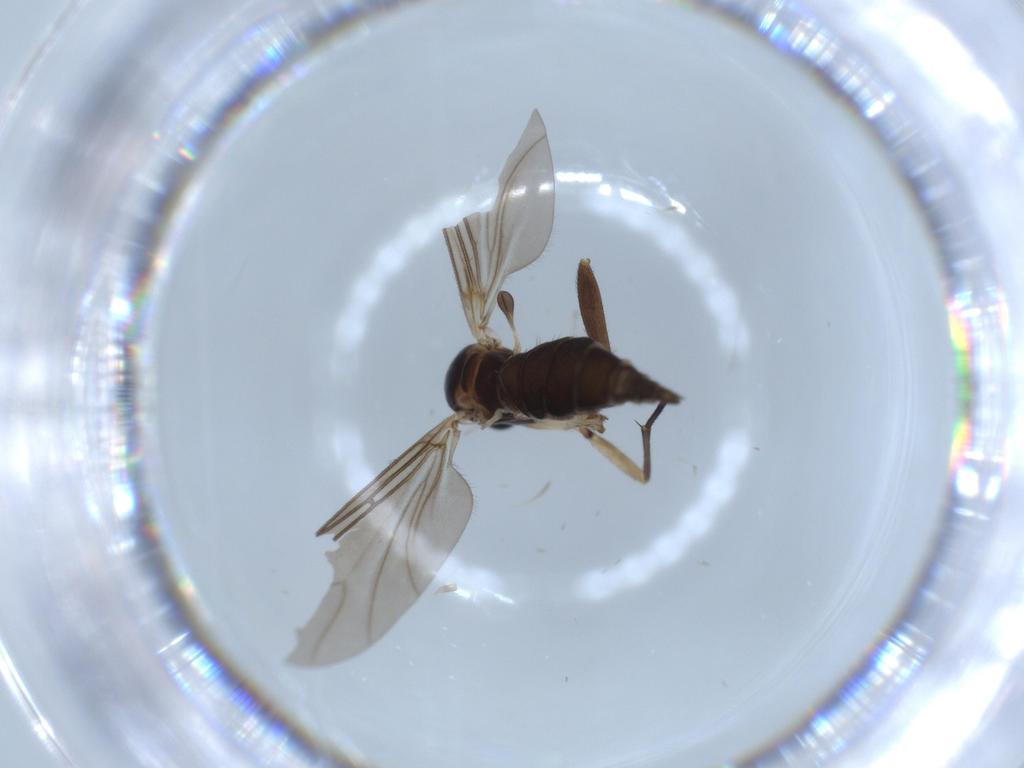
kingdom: Animalia
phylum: Arthropoda
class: Insecta
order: Diptera
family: Sciaridae
